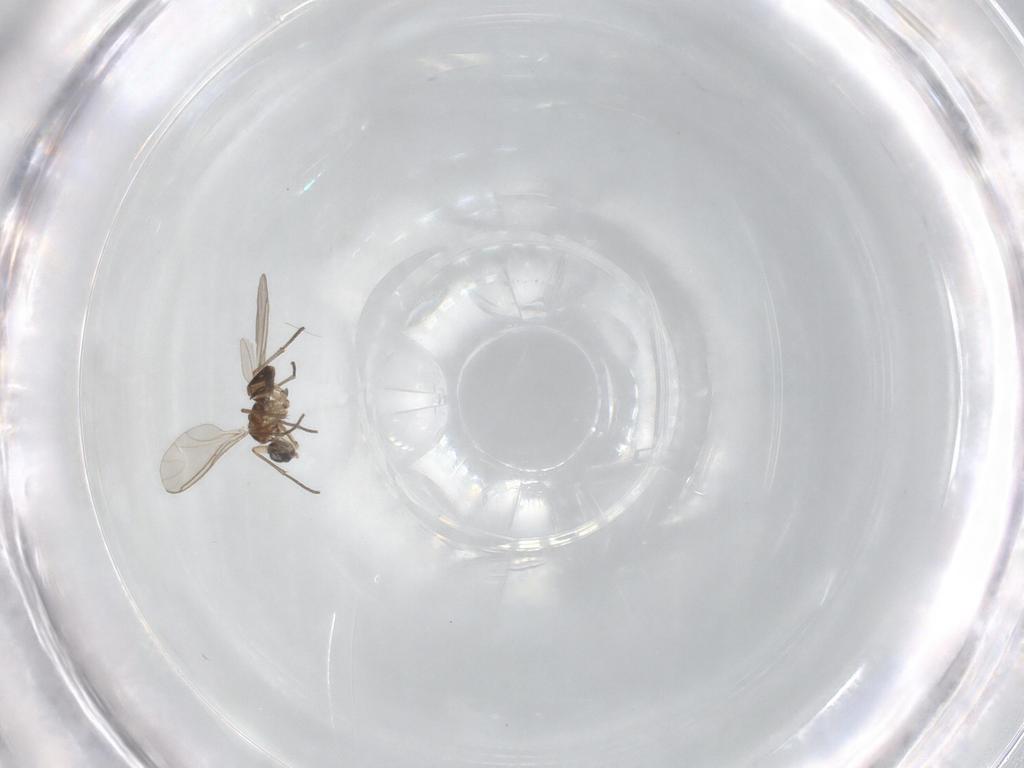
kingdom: Animalia
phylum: Arthropoda
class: Insecta
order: Diptera
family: Sciaridae
